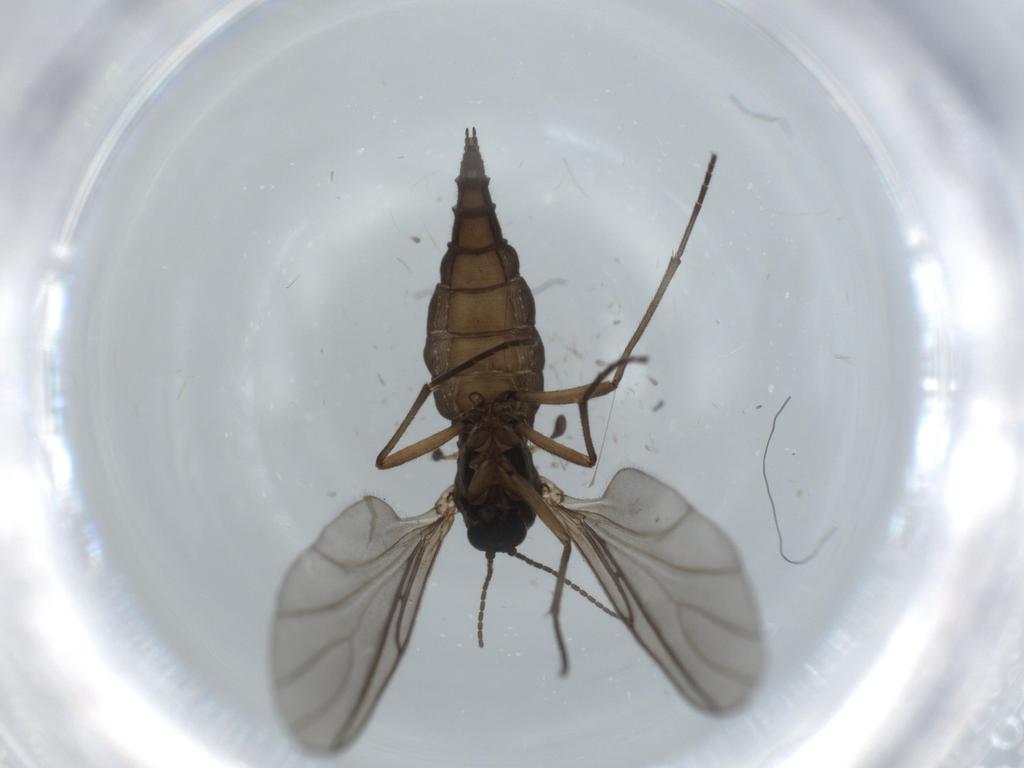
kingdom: Animalia
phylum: Arthropoda
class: Insecta
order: Diptera
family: Sciaridae
